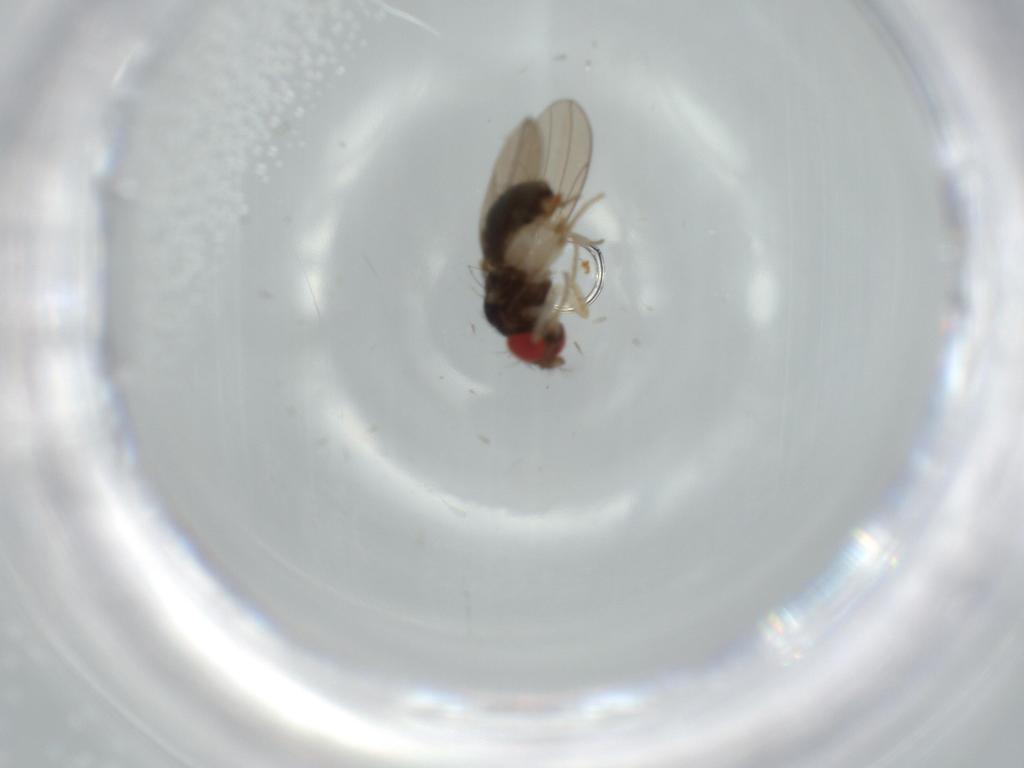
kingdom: Animalia
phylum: Arthropoda
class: Insecta
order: Diptera
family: Drosophilidae
